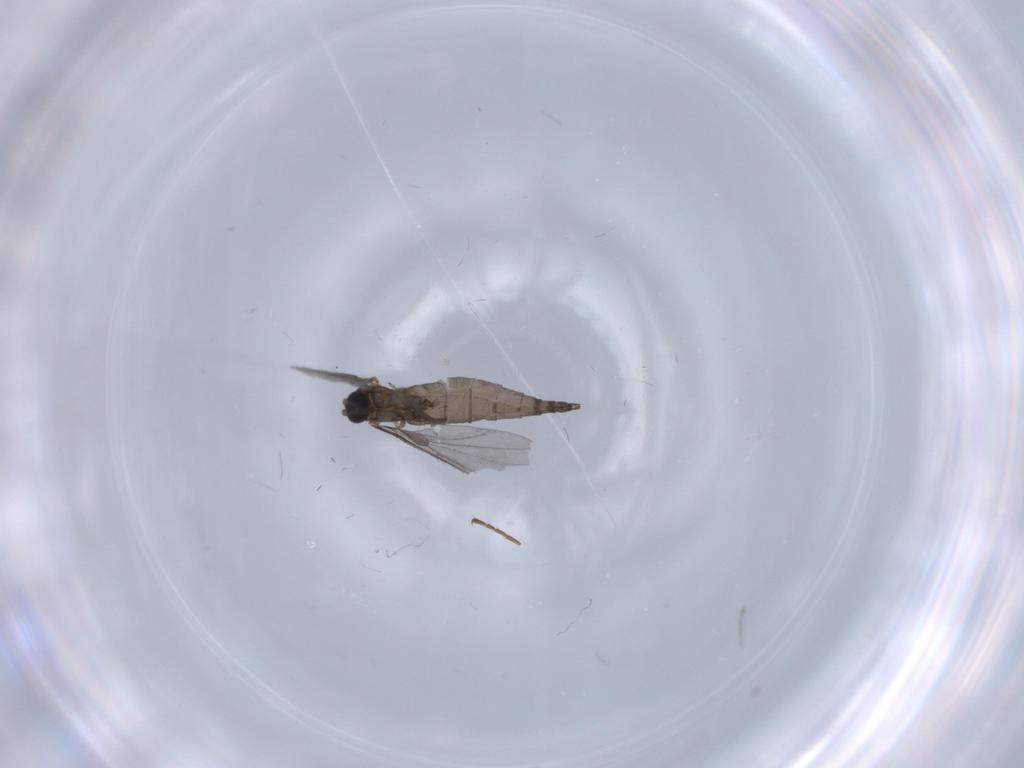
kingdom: Animalia
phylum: Arthropoda
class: Insecta
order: Diptera
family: Sciaridae
